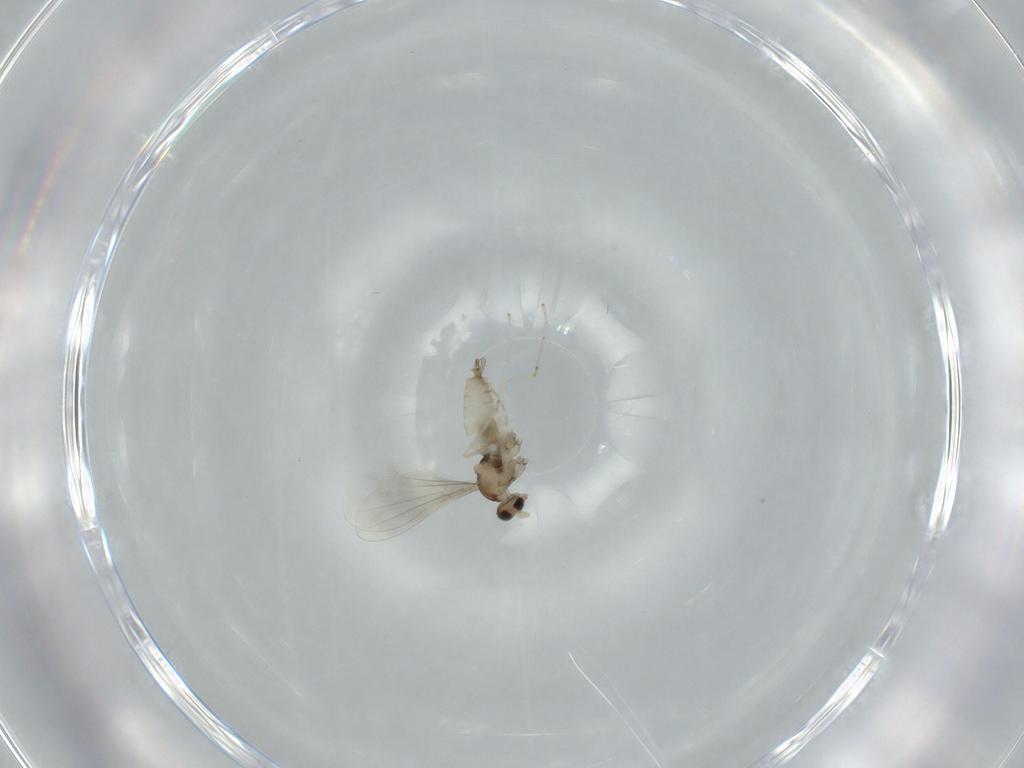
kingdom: Animalia
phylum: Arthropoda
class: Insecta
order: Diptera
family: Cecidomyiidae
